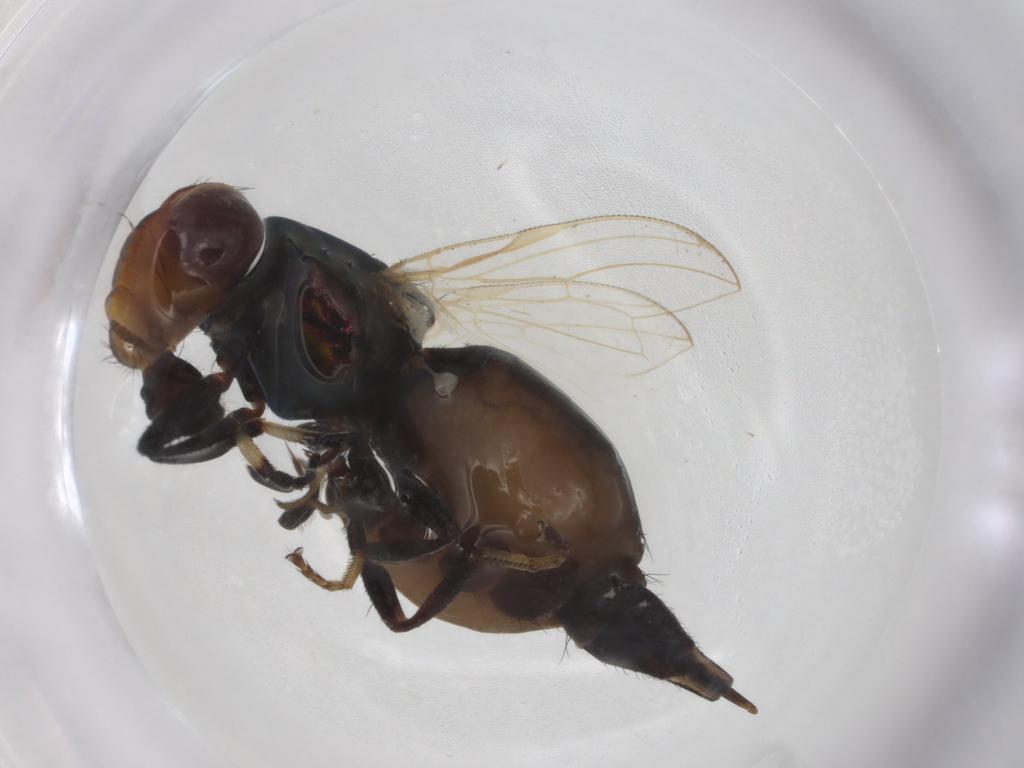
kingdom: Animalia
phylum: Arthropoda
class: Insecta
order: Diptera
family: Ulidiidae
